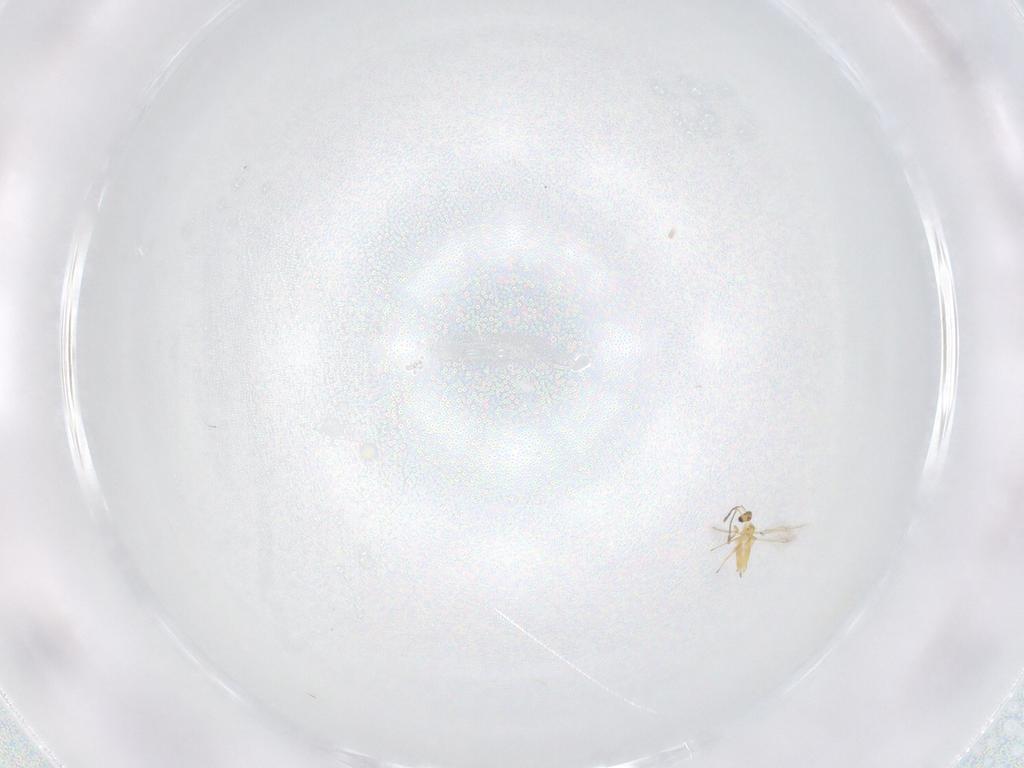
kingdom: Animalia
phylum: Arthropoda
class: Insecta
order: Hymenoptera
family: Mymaridae
